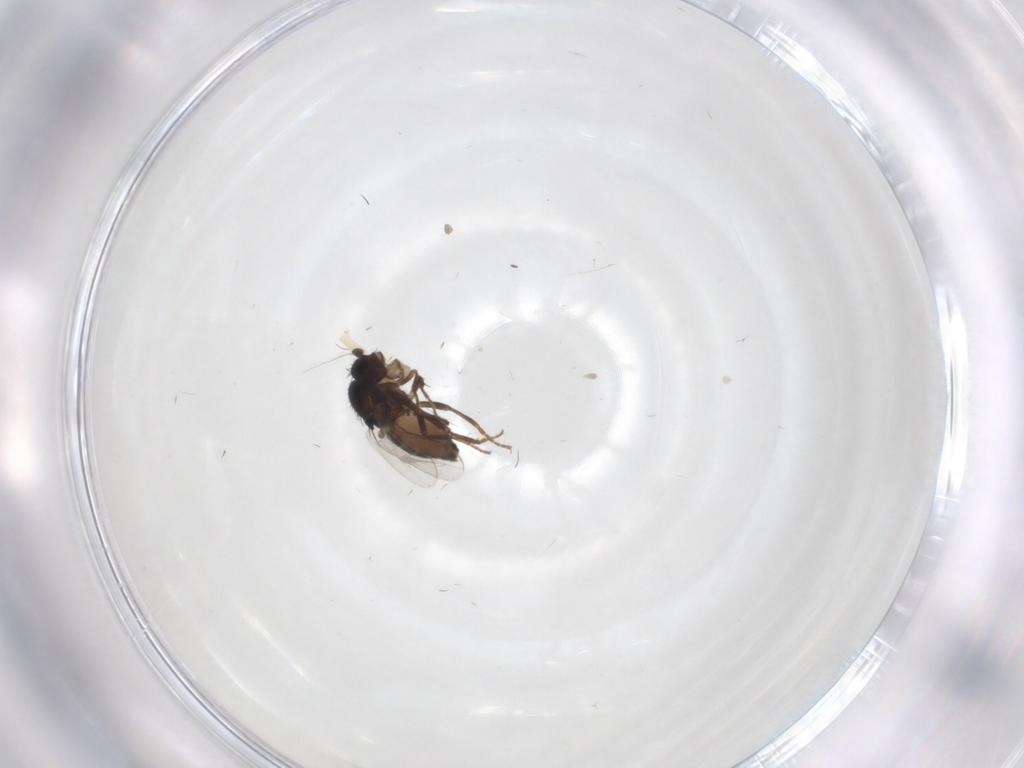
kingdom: Animalia
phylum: Arthropoda
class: Insecta
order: Diptera
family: Sphaeroceridae
